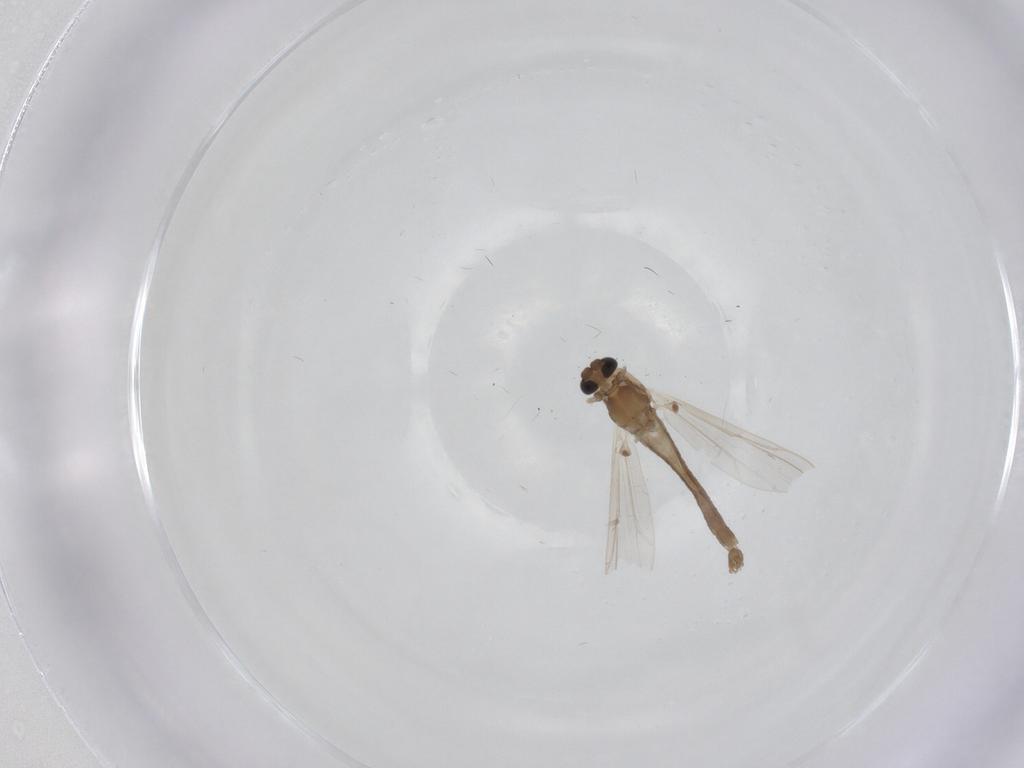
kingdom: Animalia
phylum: Arthropoda
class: Insecta
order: Diptera
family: Chironomidae
